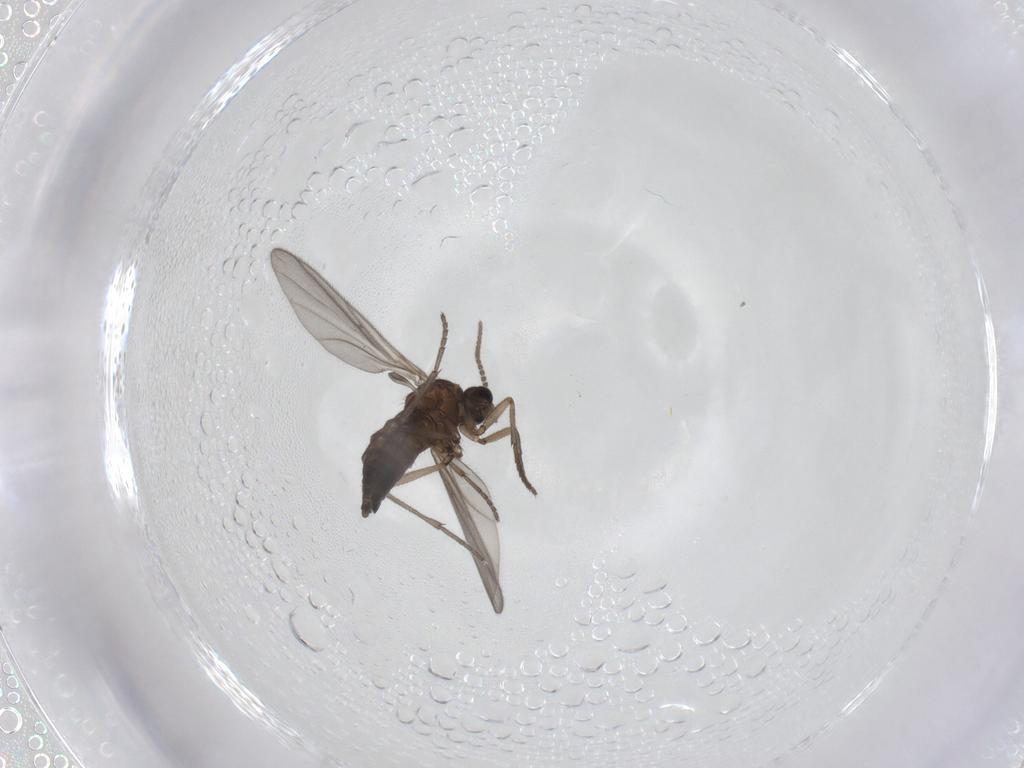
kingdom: Animalia
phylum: Arthropoda
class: Insecta
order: Diptera
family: Sciaridae
